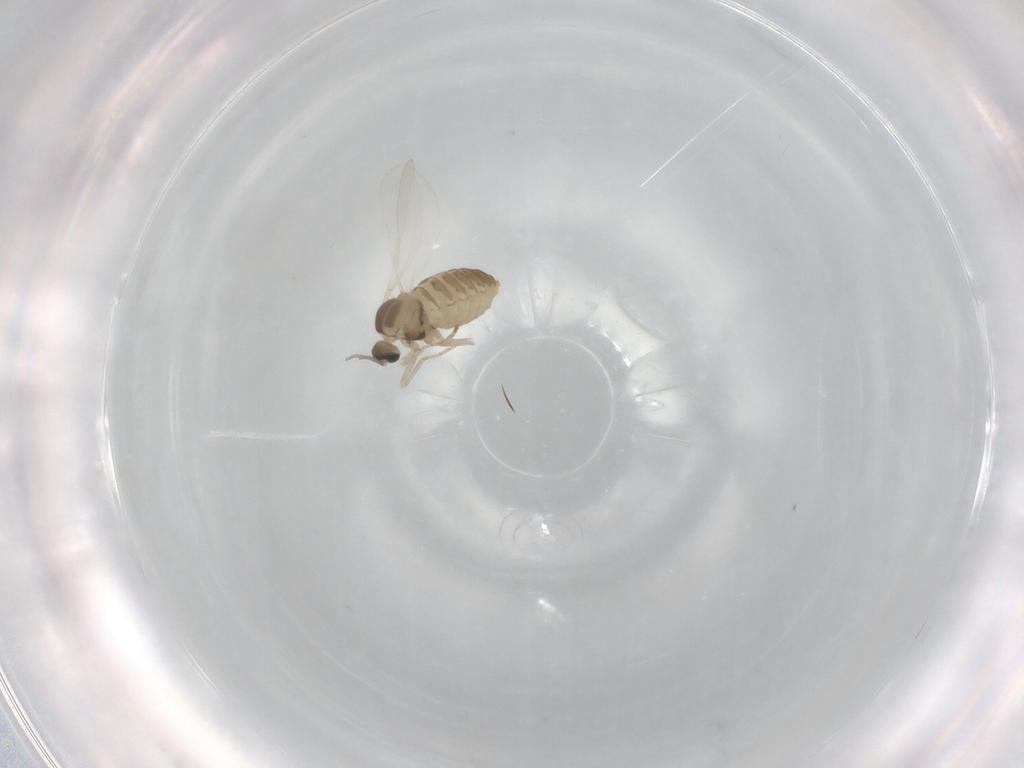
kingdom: Animalia
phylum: Arthropoda
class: Insecta
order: Diptera
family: Cecidomyiidae
